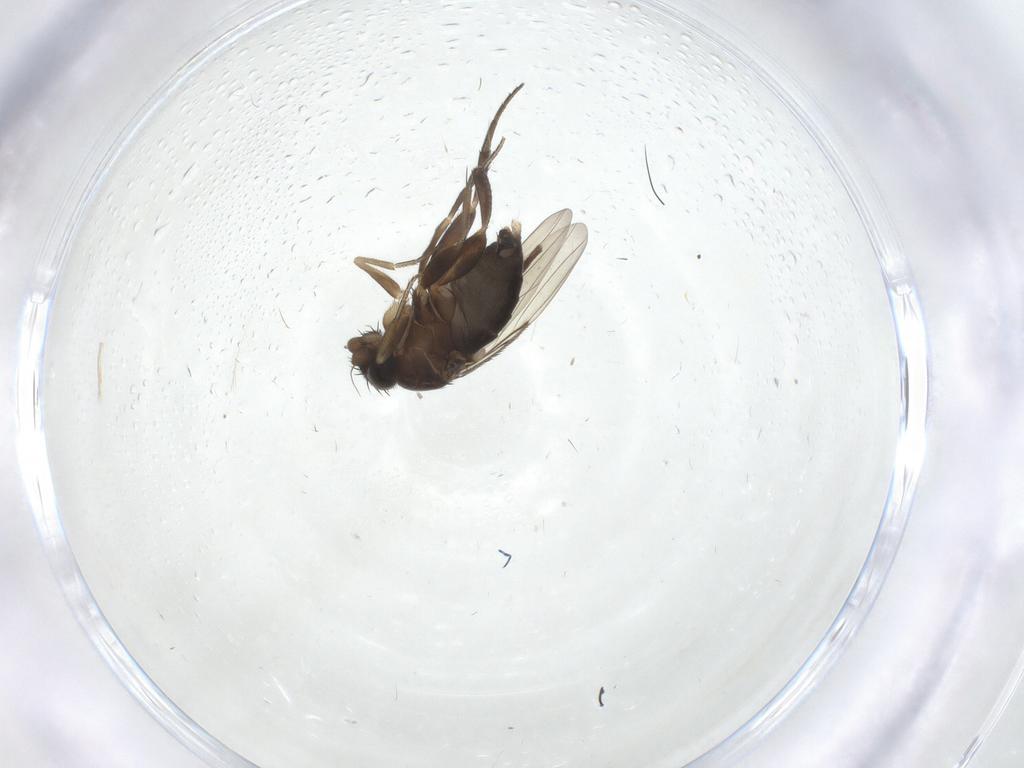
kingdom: Animalia
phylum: Arthropoda
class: Insecta
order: Diptera
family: Phoridae
